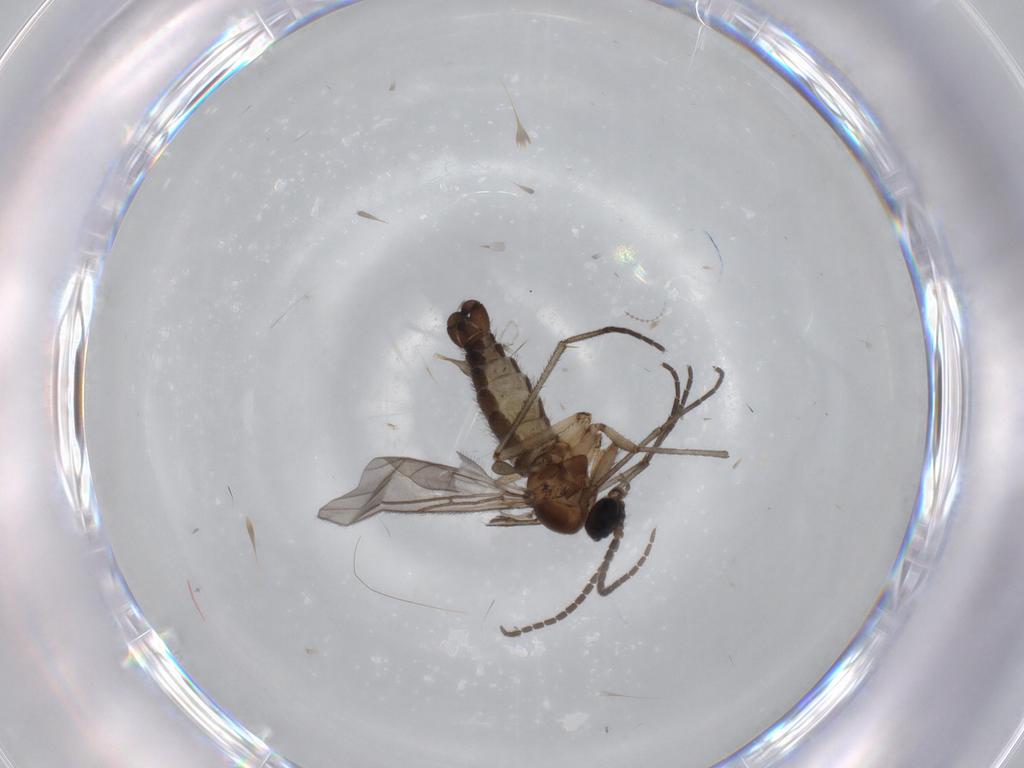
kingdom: Animalia
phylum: Arthropoda
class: Insecta
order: Diptera
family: Sciaridae
